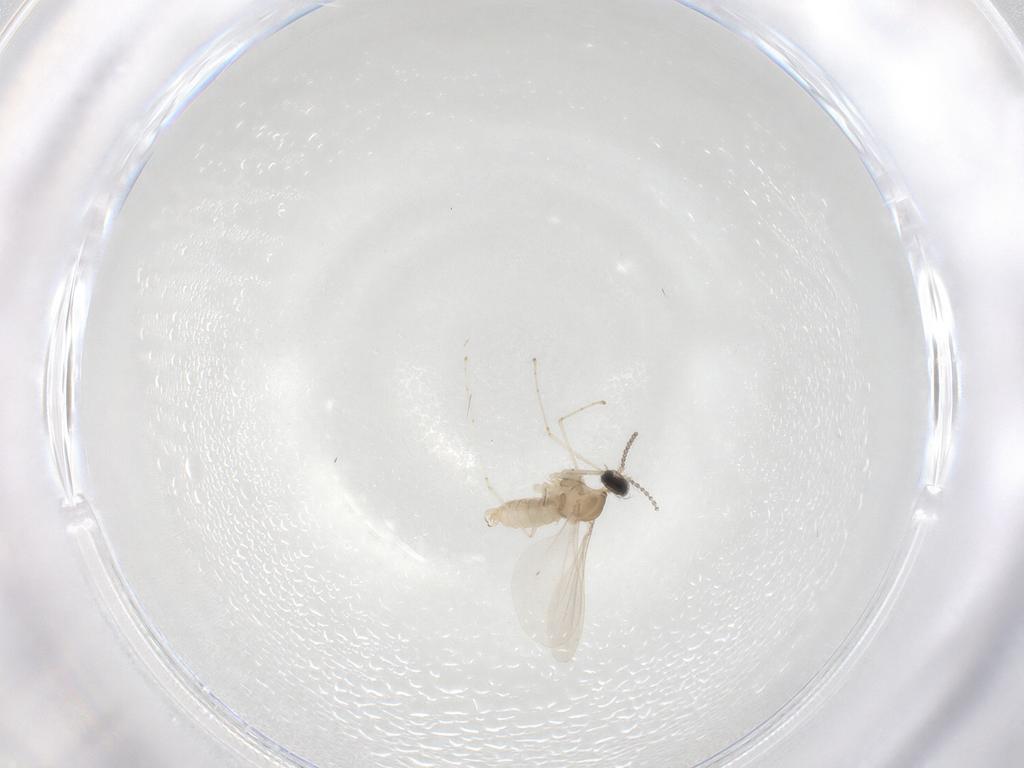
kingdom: Animalia
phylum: Arthropoda
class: Insecta
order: Diptera
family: Cecidomyiidae
